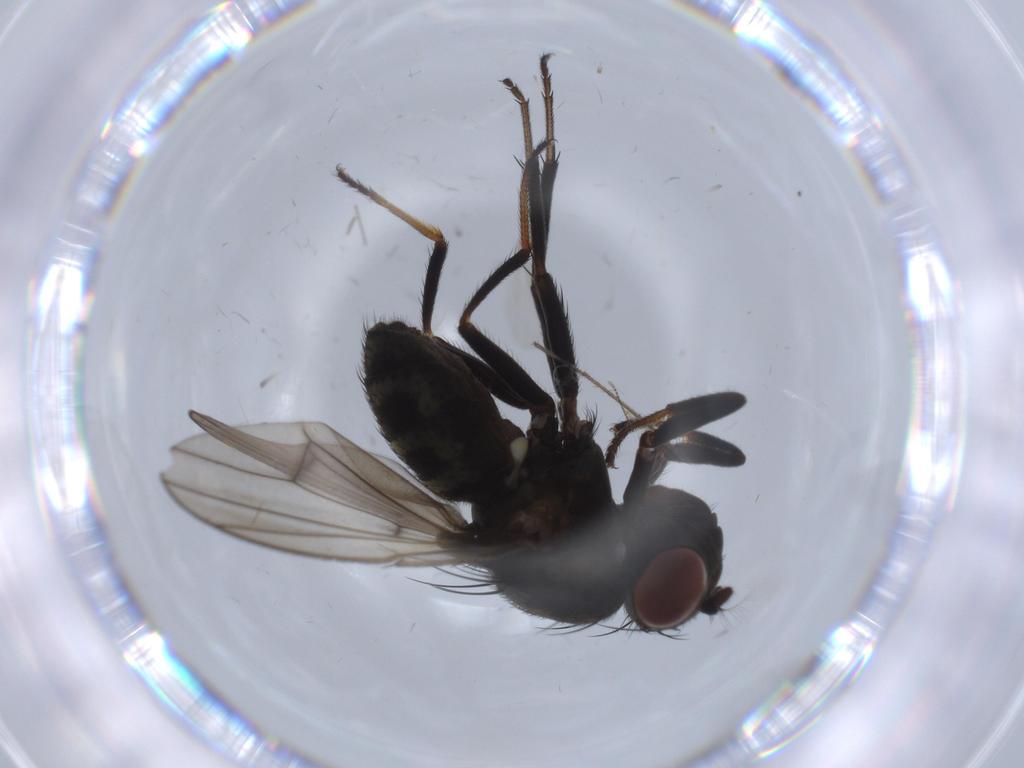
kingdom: Animalia
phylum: Arthropoda
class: Insecta
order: Diptera
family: Ephydridae
